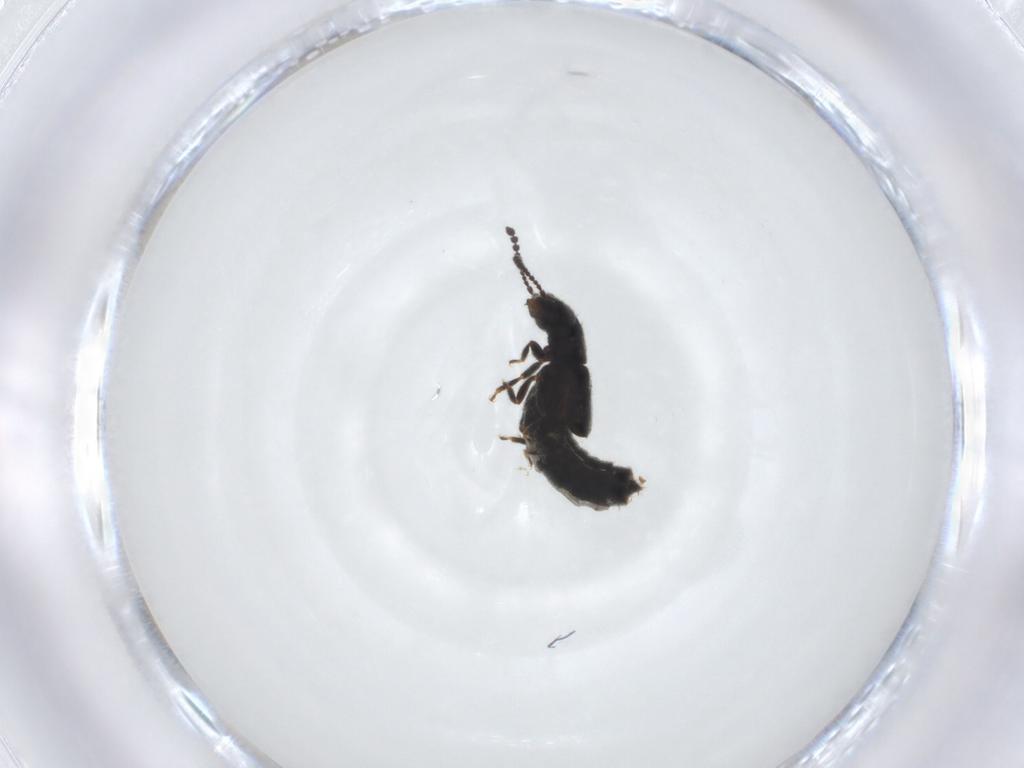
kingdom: Animalia
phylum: Arthropoda
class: Insecta
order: Coleoptera
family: Staphylinidae
